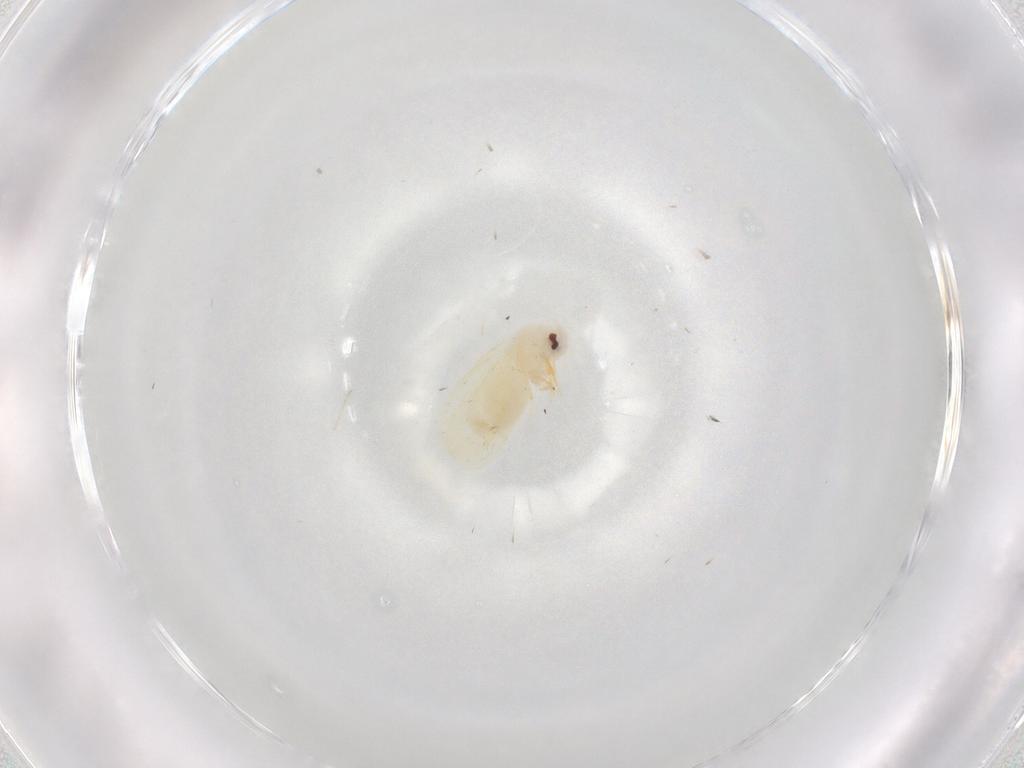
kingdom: Animalia
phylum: Arthropoda
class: Insecta
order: Hemiptera
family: Aleyrodidae
